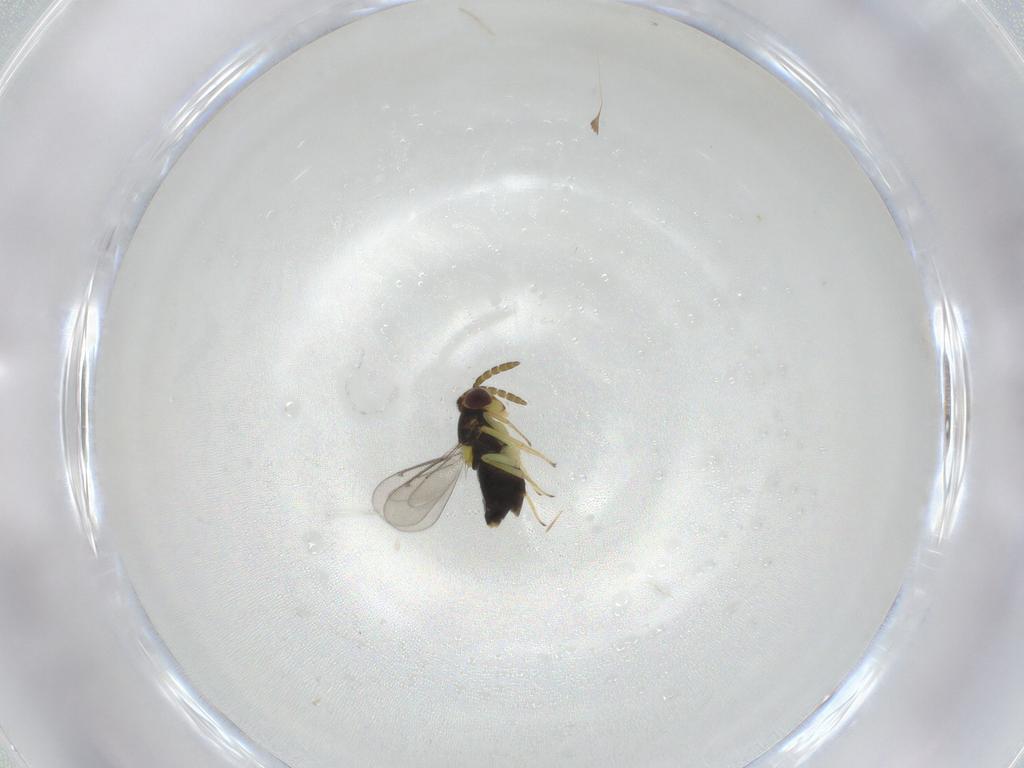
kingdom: Animalia
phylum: Arthropoda
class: Insecta
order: Hymenoptera
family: Aphelinidae
